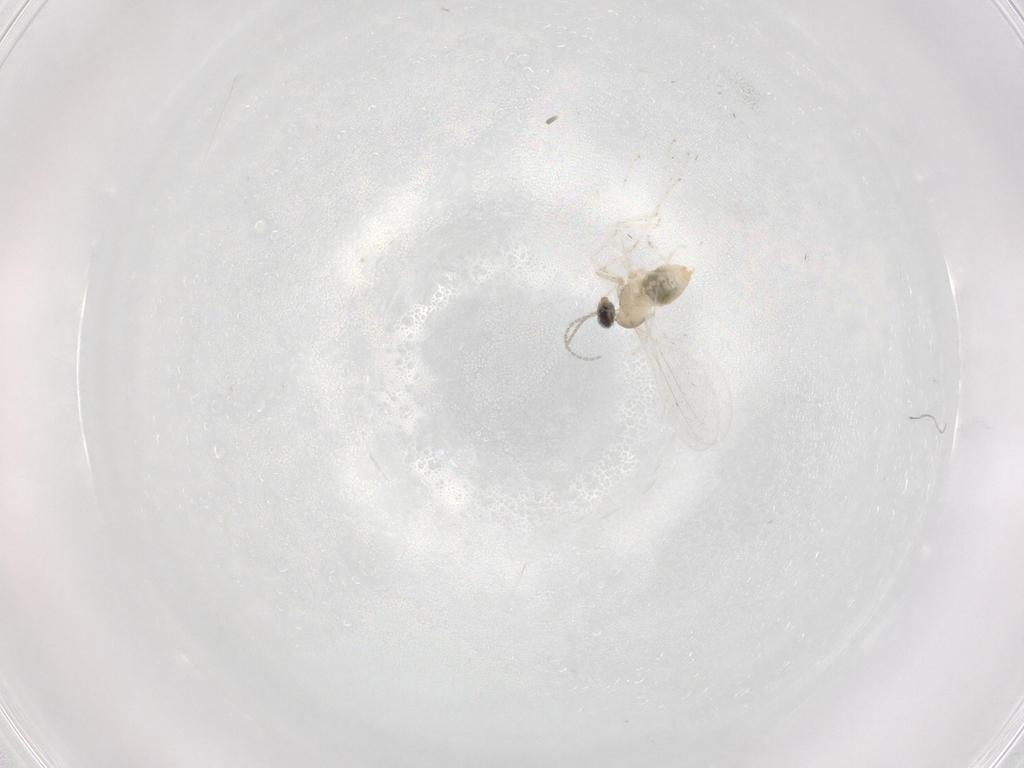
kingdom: Animalia
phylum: Arthropoda
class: Insecta
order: Diptera
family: Cecidomyiidae
